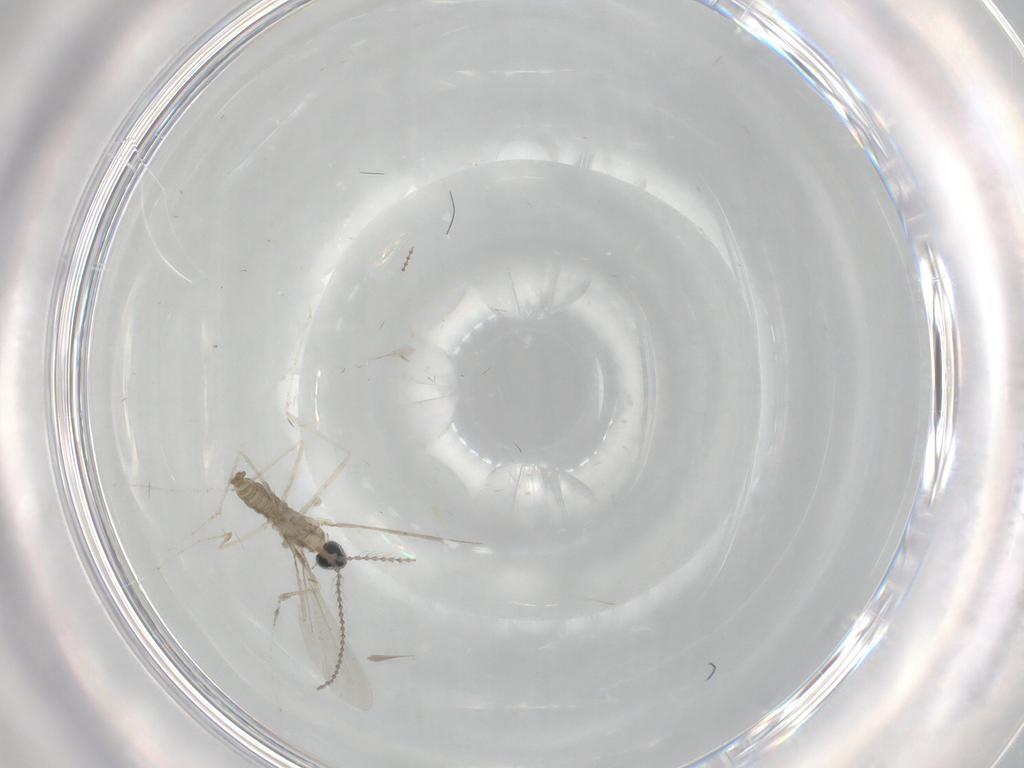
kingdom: Animalia
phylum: Arthropoda
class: Insecta
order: Diptera
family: Cecidomyiidae
